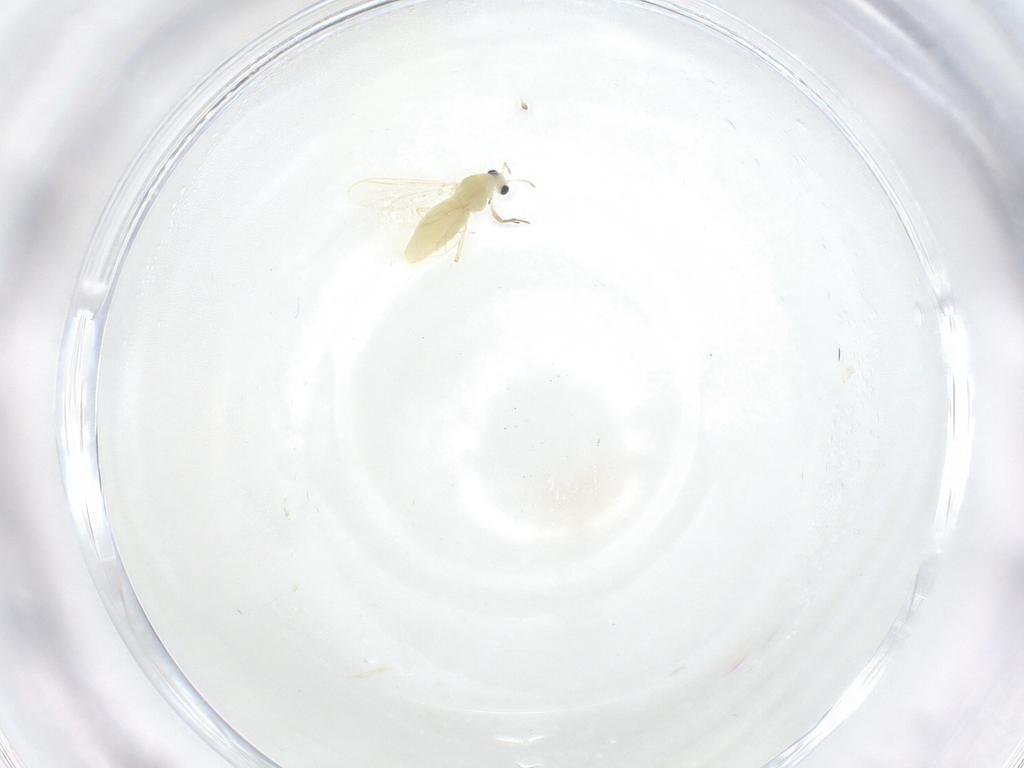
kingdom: Animalia
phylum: Arthropoda
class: Insecta
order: Diptera
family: Chironomidae
